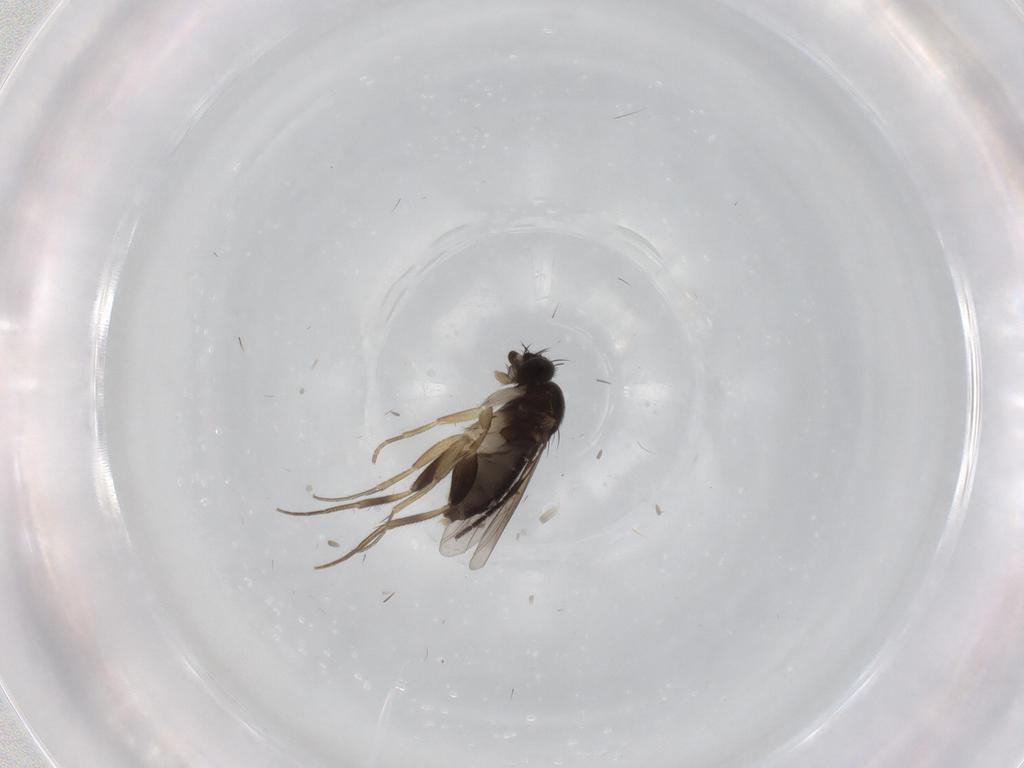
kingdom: Animalia
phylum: Arthropoda
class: Insecta
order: Diptera
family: Phoridae
